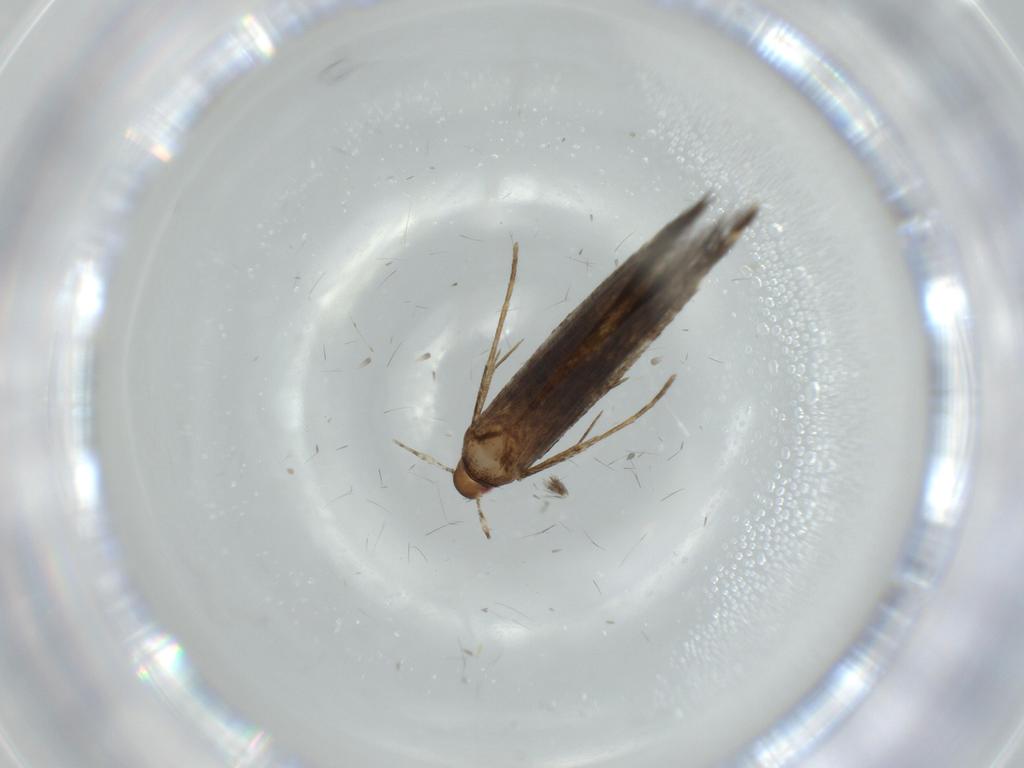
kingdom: Animalia
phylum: Arthropoda
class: Insecta
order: Lepidoptera
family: Cosmopterigidae
